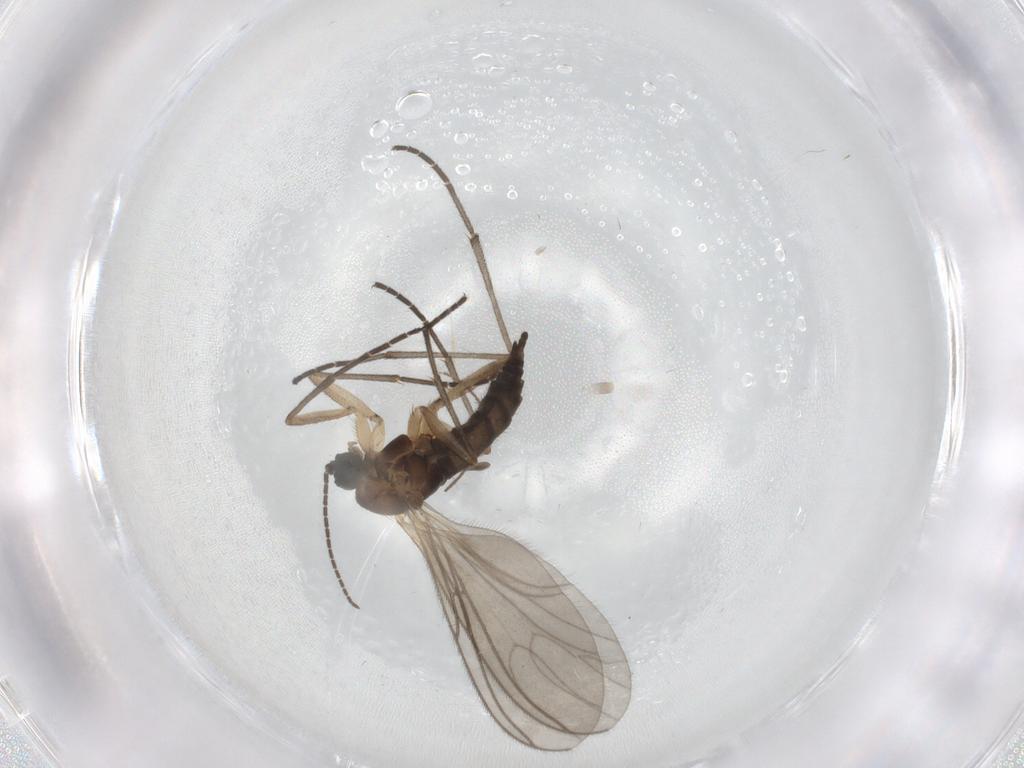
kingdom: Animalia
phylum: Arthropoda
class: Insecta
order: Diptera
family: Sciaridae
